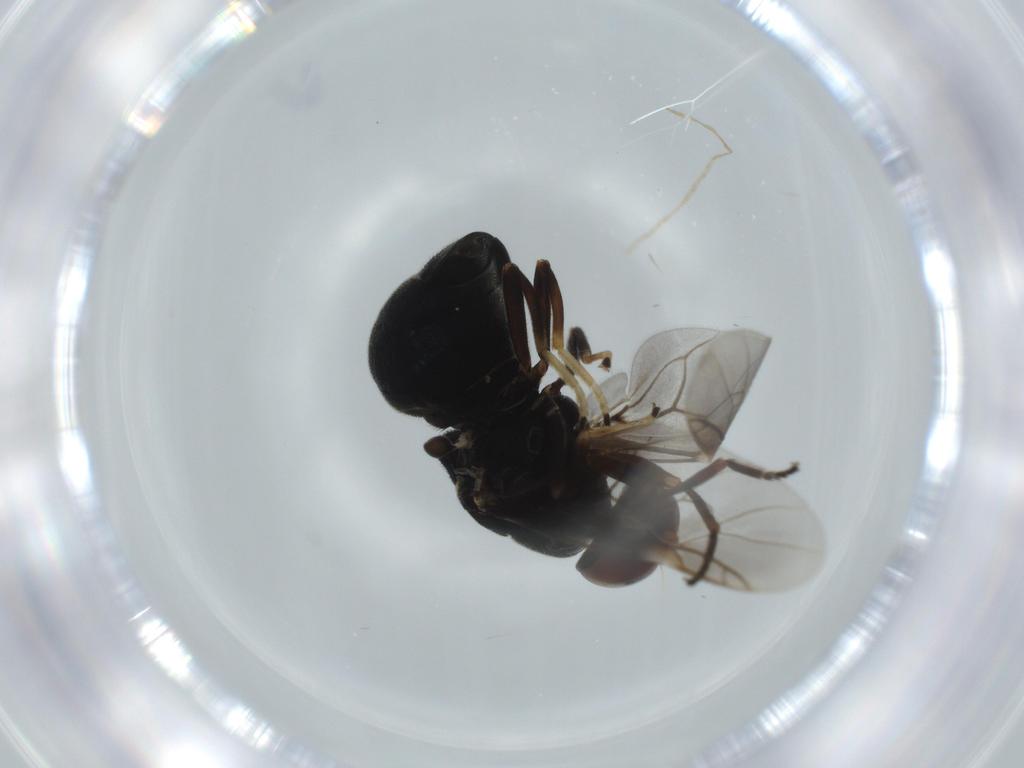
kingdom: Animalia
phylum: Arthropoda
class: Insecta
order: Diptera
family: Stratiomyidae
